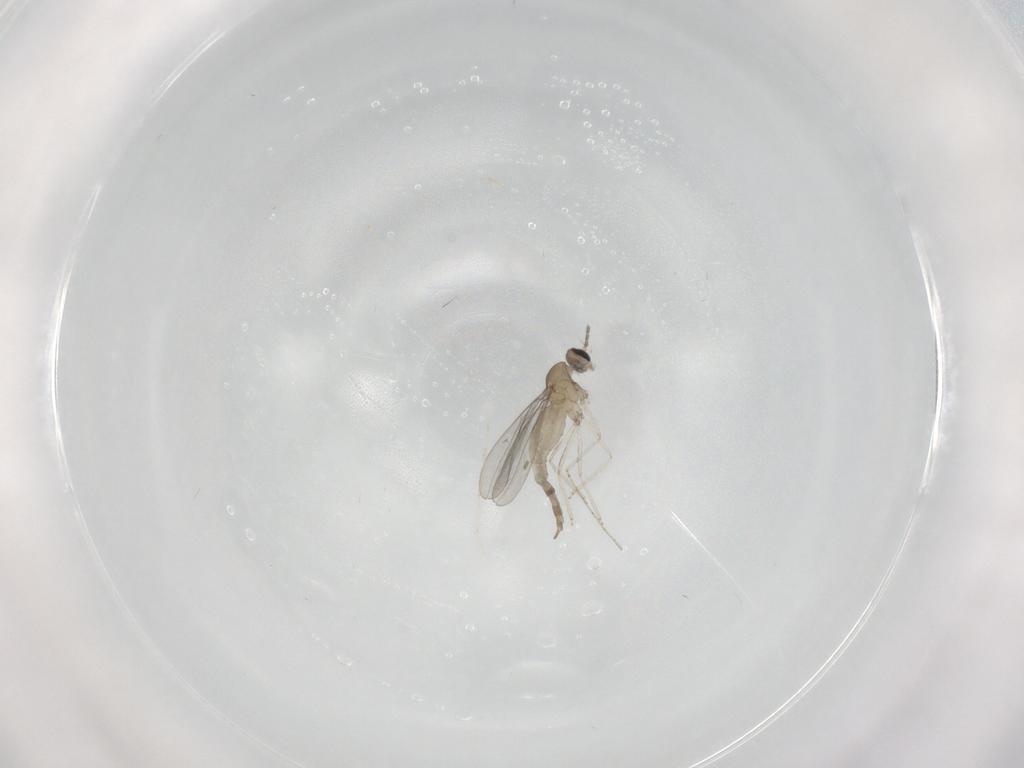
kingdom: Animalia
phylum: Arthropoda
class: Insecta
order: Diptera
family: Cecidomyiidae
